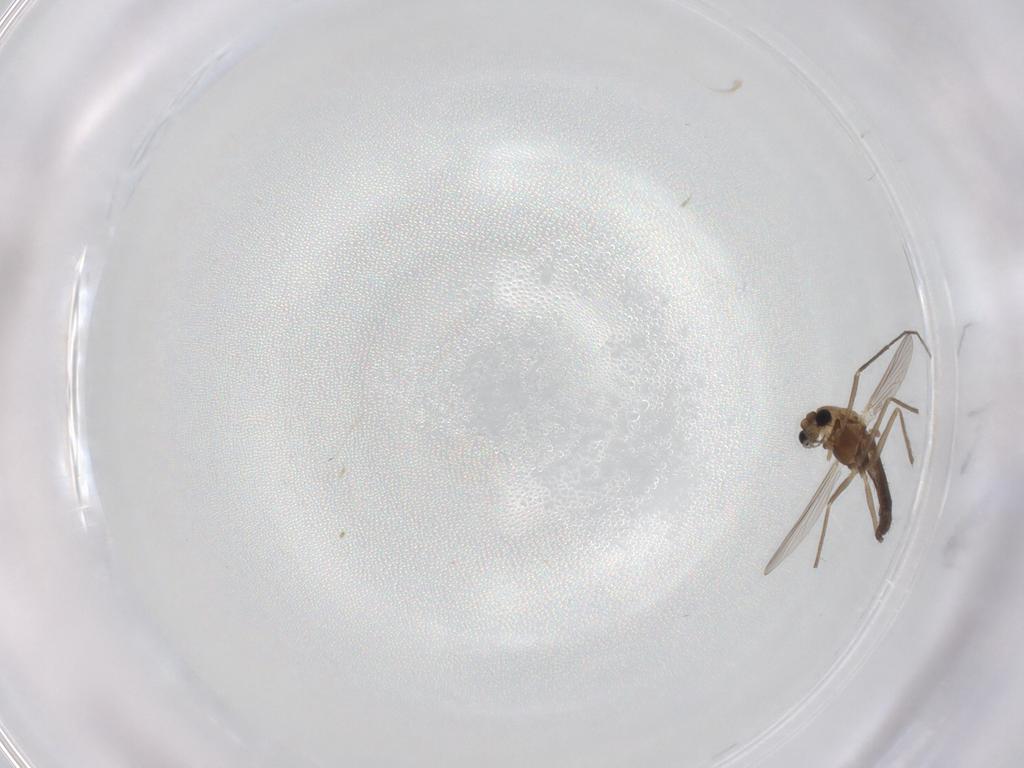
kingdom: Animalia
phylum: Arthropoda
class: Insecta
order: Diptera
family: Chironomidae
